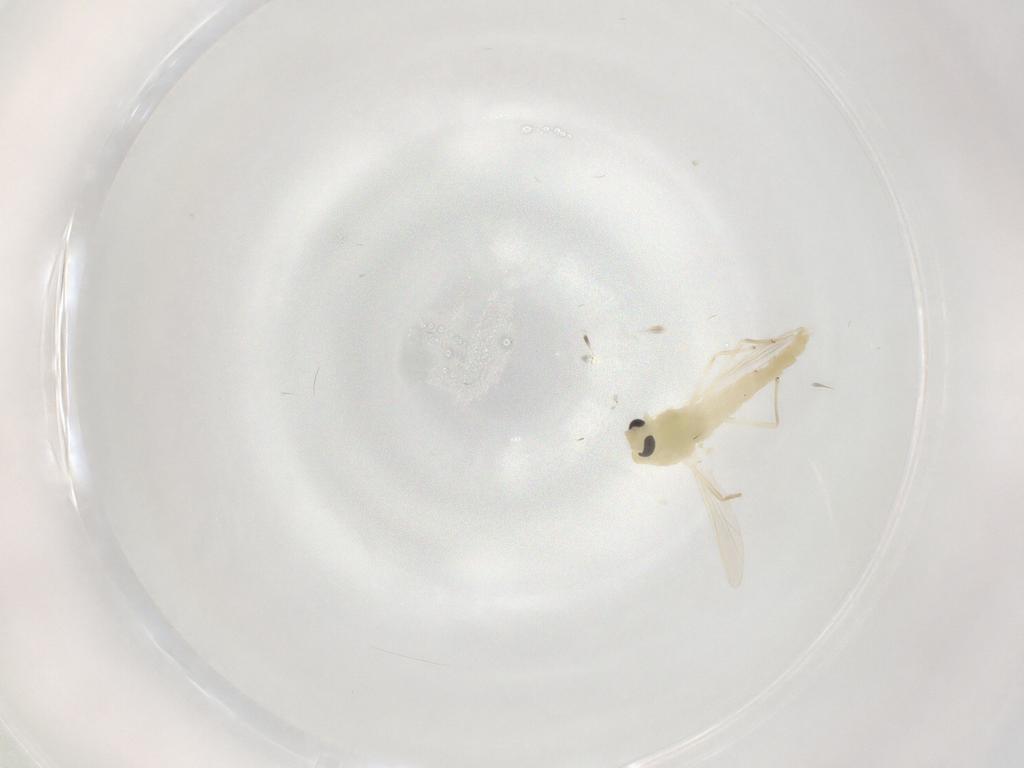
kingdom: Animalia
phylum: Arthropoda
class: Insecta
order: Diptera
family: Chironomidae
